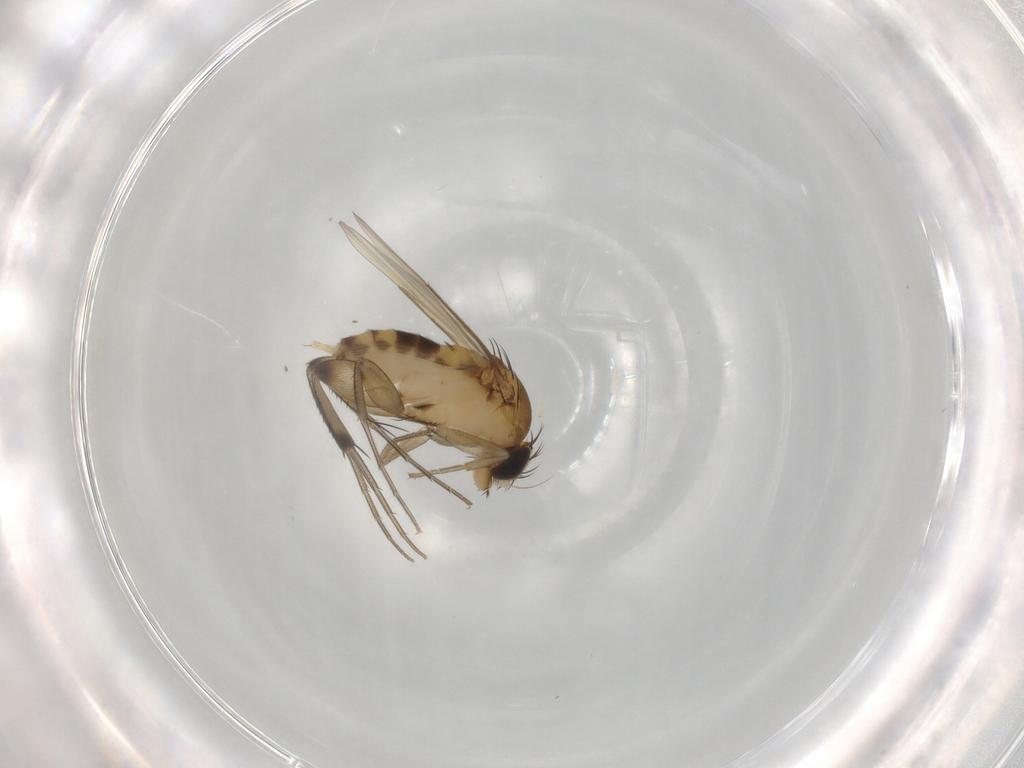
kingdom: Animalia
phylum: Arthropoda
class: Insecta
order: Diptera
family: Phoridae
